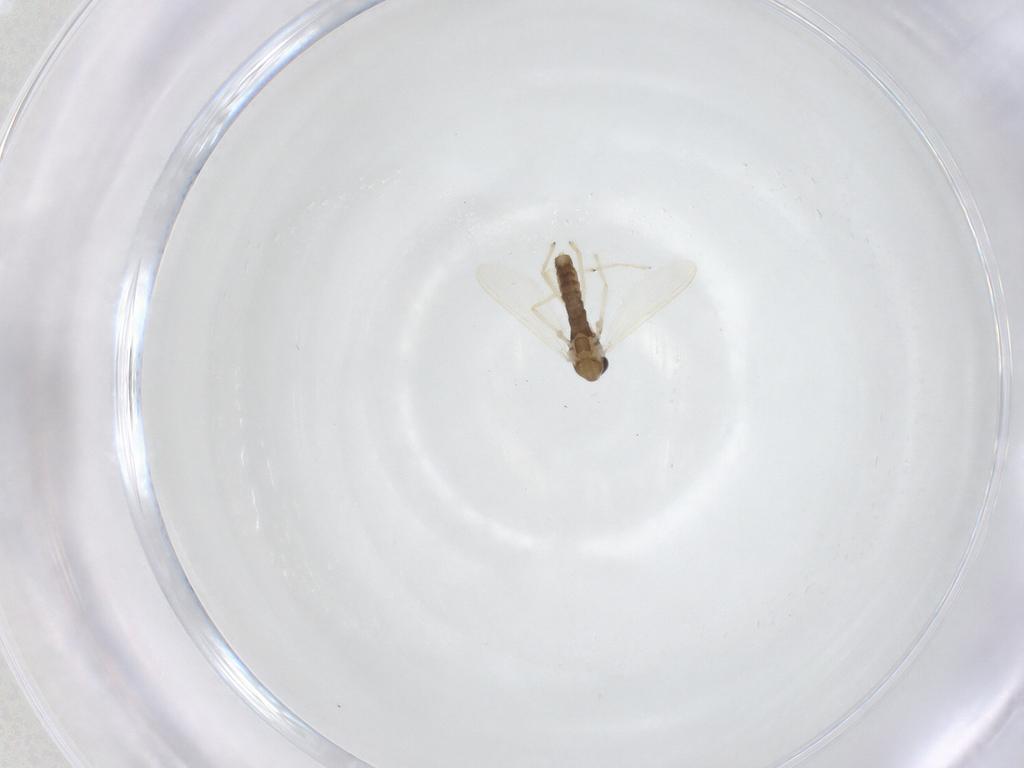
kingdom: Animalia
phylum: Arthropoda
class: Insecta
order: Diptera
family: Chironomidae
